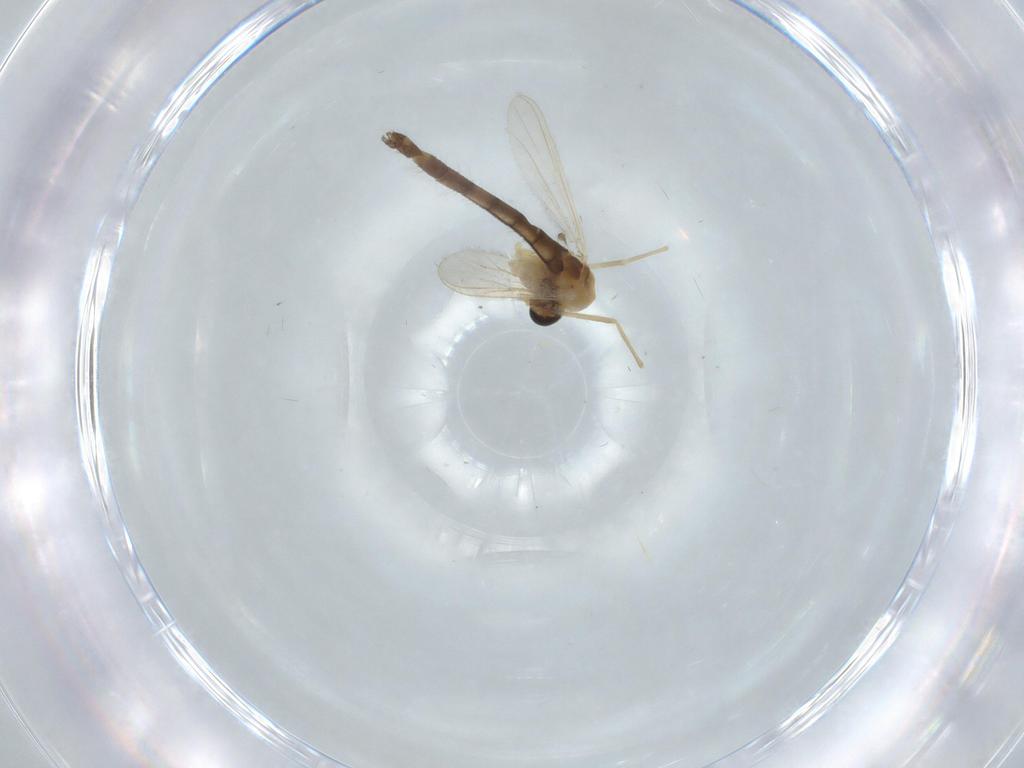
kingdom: Animalia
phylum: Arthropoda
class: Insecta
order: Diptera
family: Chironomidae
